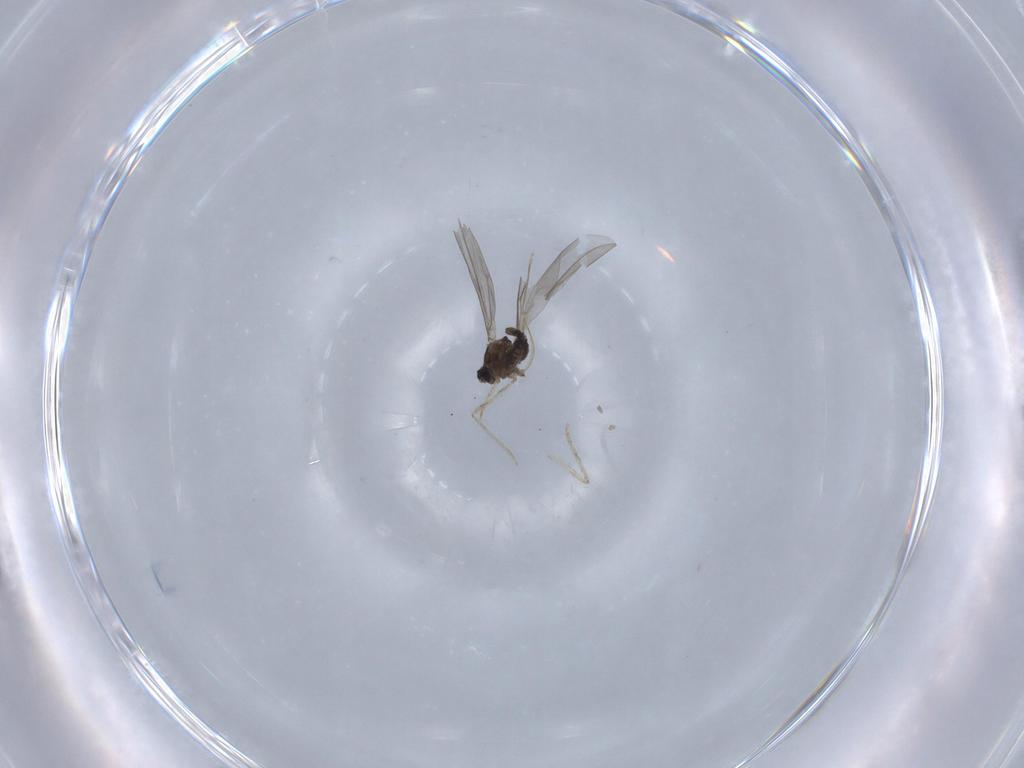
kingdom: Animalia
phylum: Arthropoda
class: Insecta
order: Diptera
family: Cecidomyiidae
